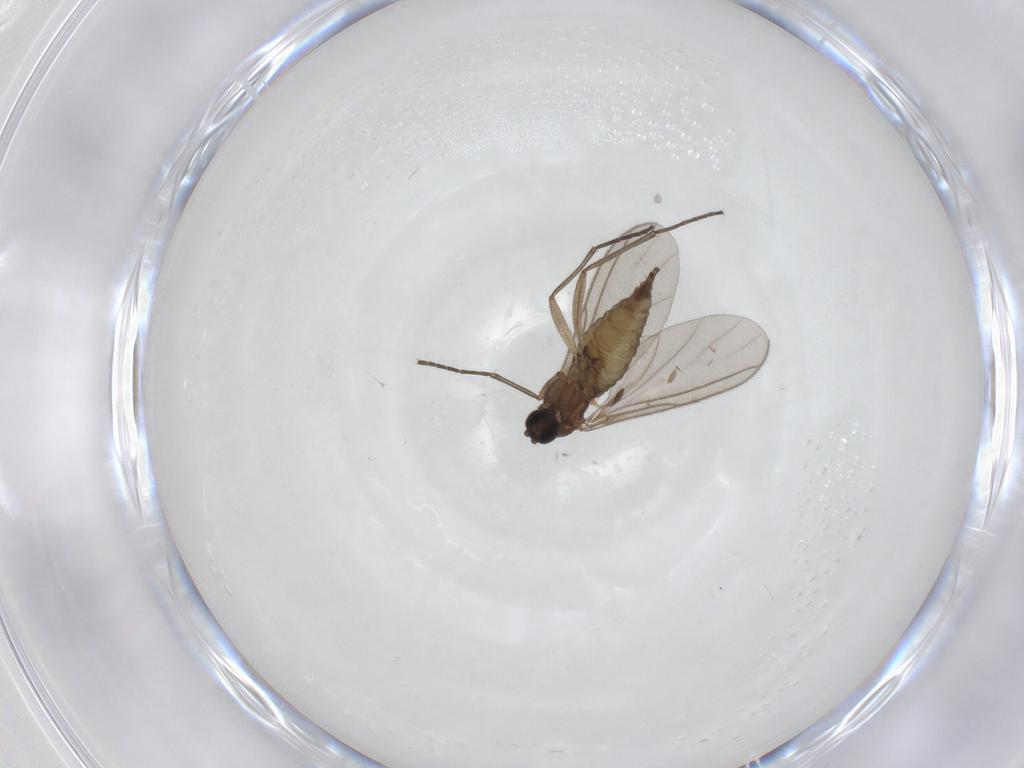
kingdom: Animalia
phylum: Arthropoda
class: Insecta
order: Diptera
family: Sciaridae
